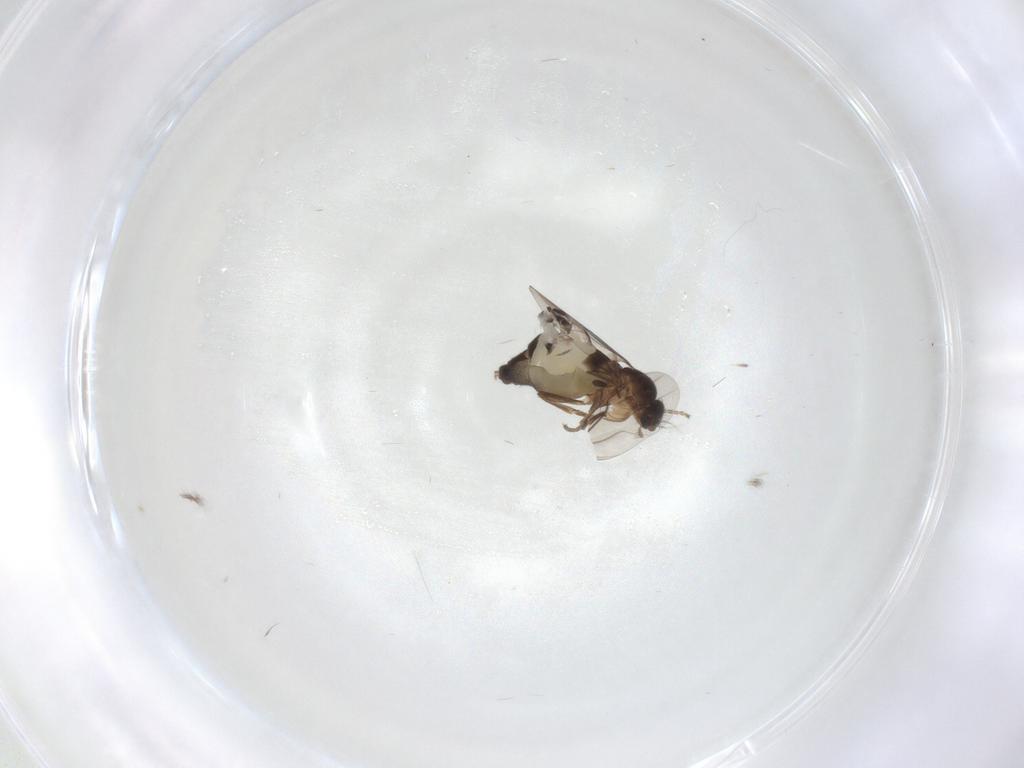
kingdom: Animalia
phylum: Arthropoda
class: Insecta
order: Diptera
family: Phoridae
